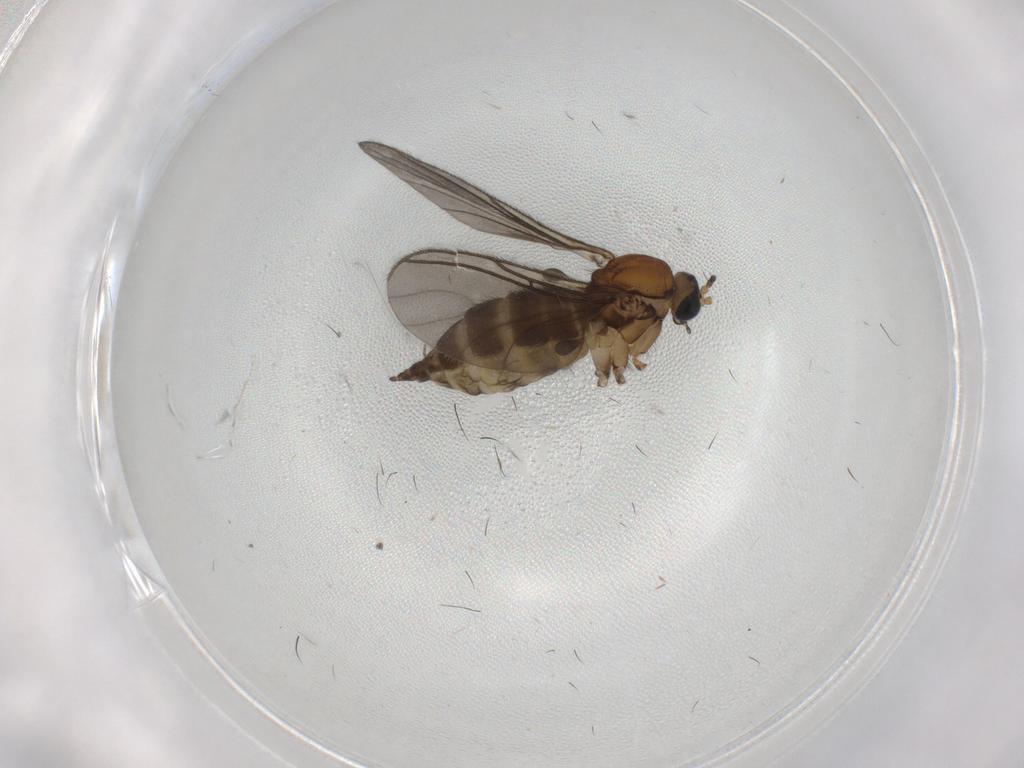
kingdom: Animalia
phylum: Arthropoda
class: Insecta
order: Diptera
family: Sciaridae
